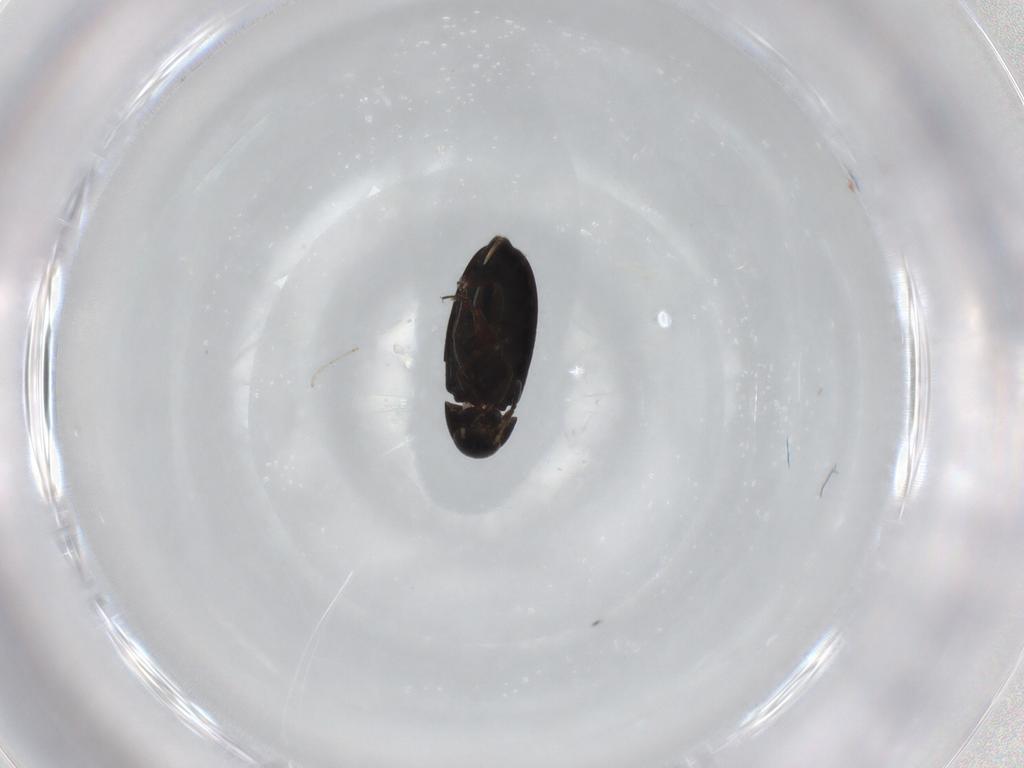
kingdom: Animalia
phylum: Arthropoda
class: Insecta
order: Coleoptera
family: Scraptiidae
